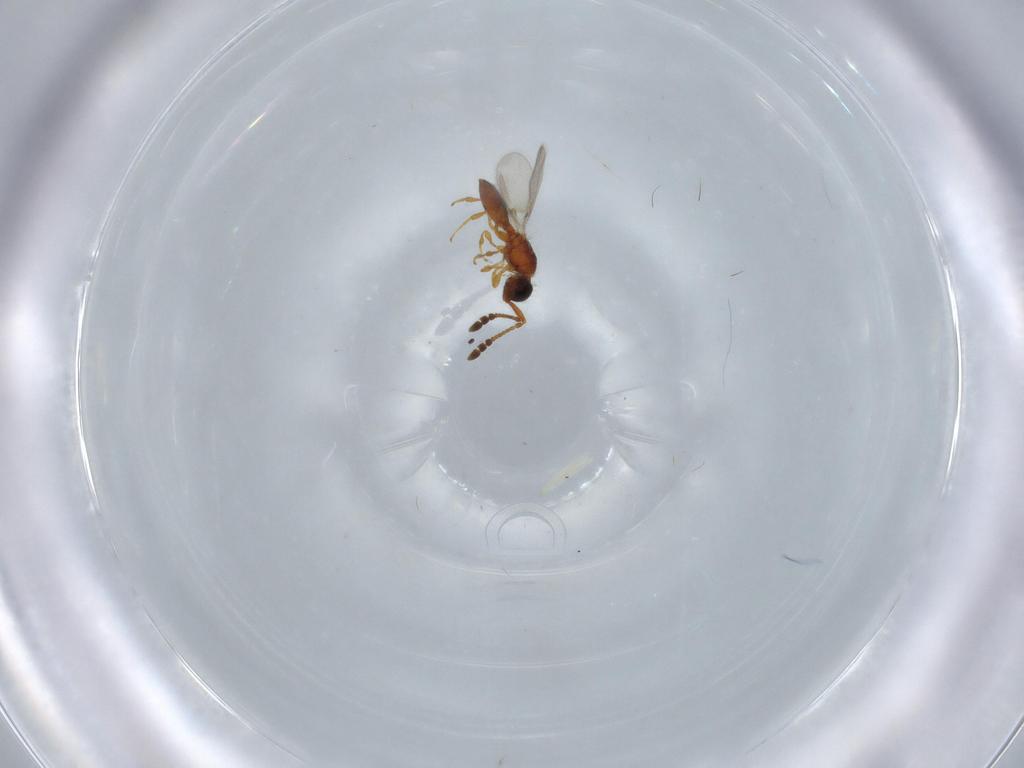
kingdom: Animalia
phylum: Arthropoda
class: Insecta
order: Hymenoptera
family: Diapriidae
